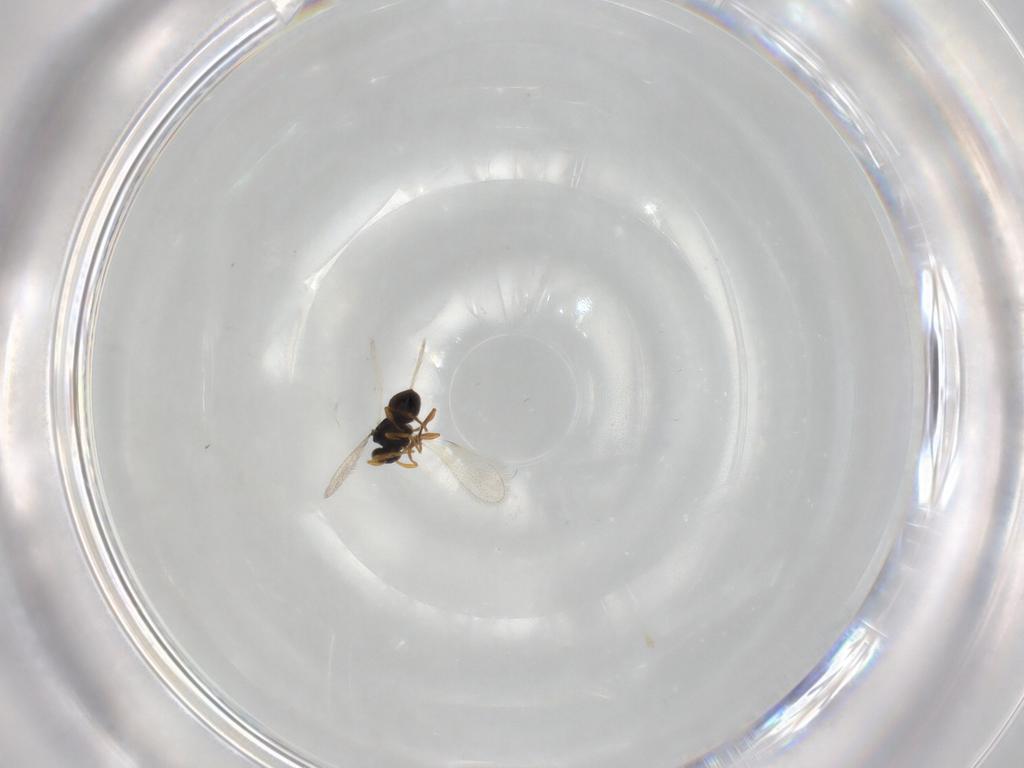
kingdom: Animalia
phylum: Arthropoda
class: Insecta
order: Hymenoptera
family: Platygastridae
